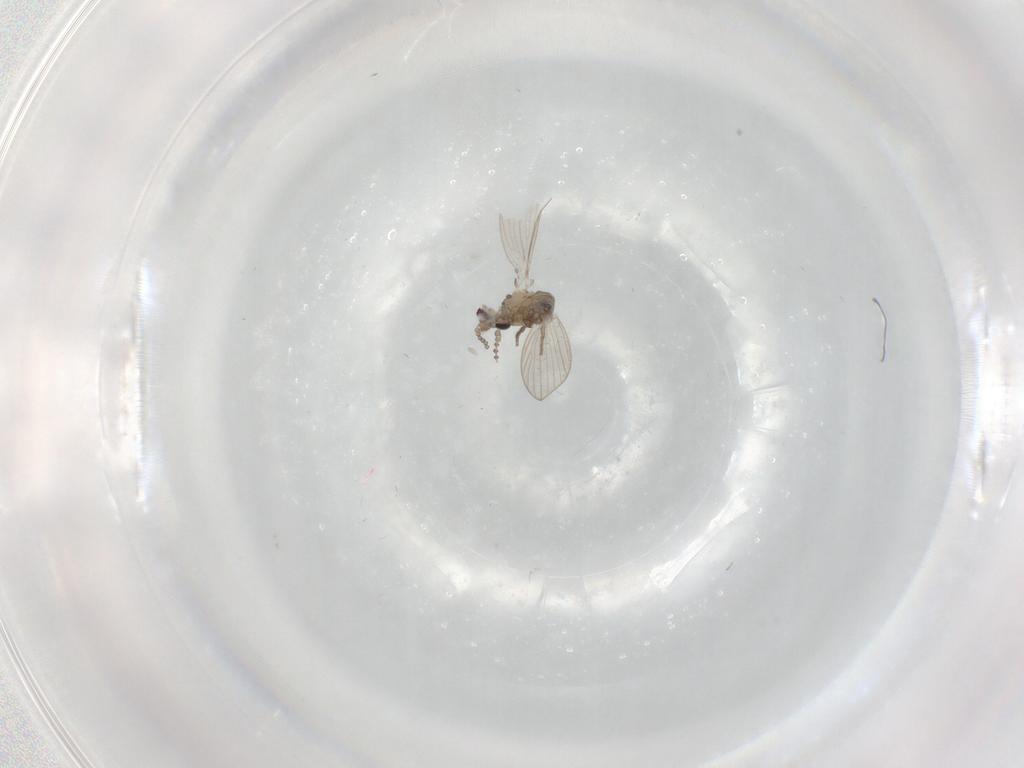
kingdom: Animalia
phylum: Arthropoda
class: Insecta
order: Diptera
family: Psychodidae
